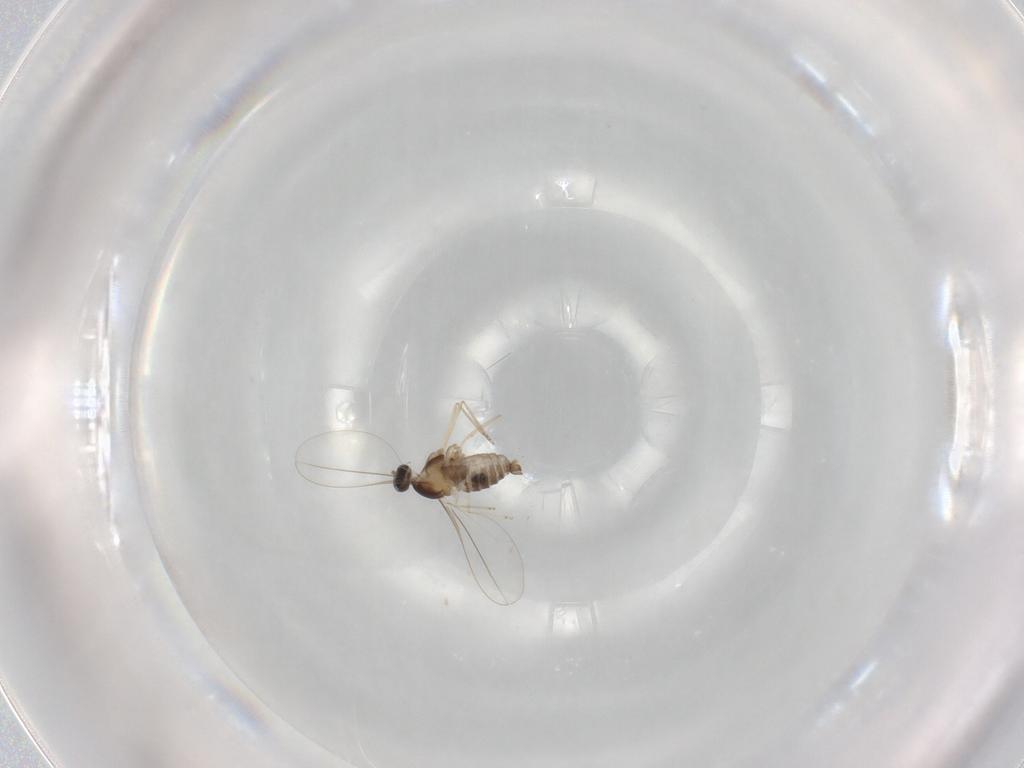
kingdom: Animalia
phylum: Arthropoda
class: Insecta
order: Diptera
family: Cecidomyiidae
